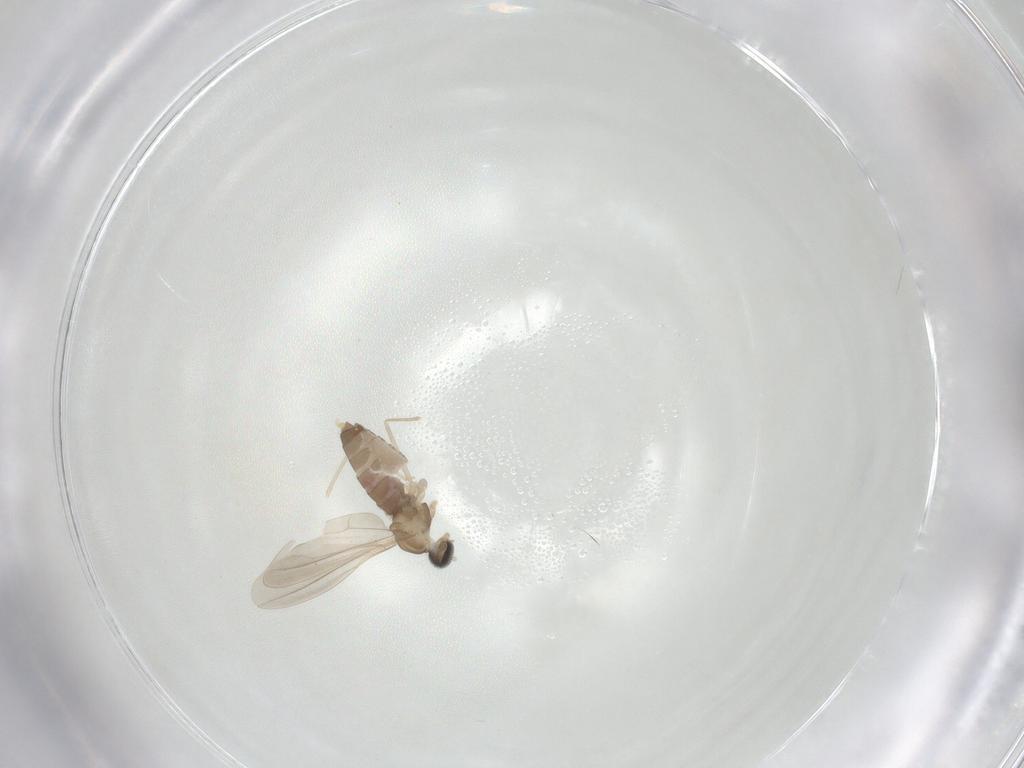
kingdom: Animalia
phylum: Arthropoda
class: Insecta
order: Diptera
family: Cecidomyiidae
